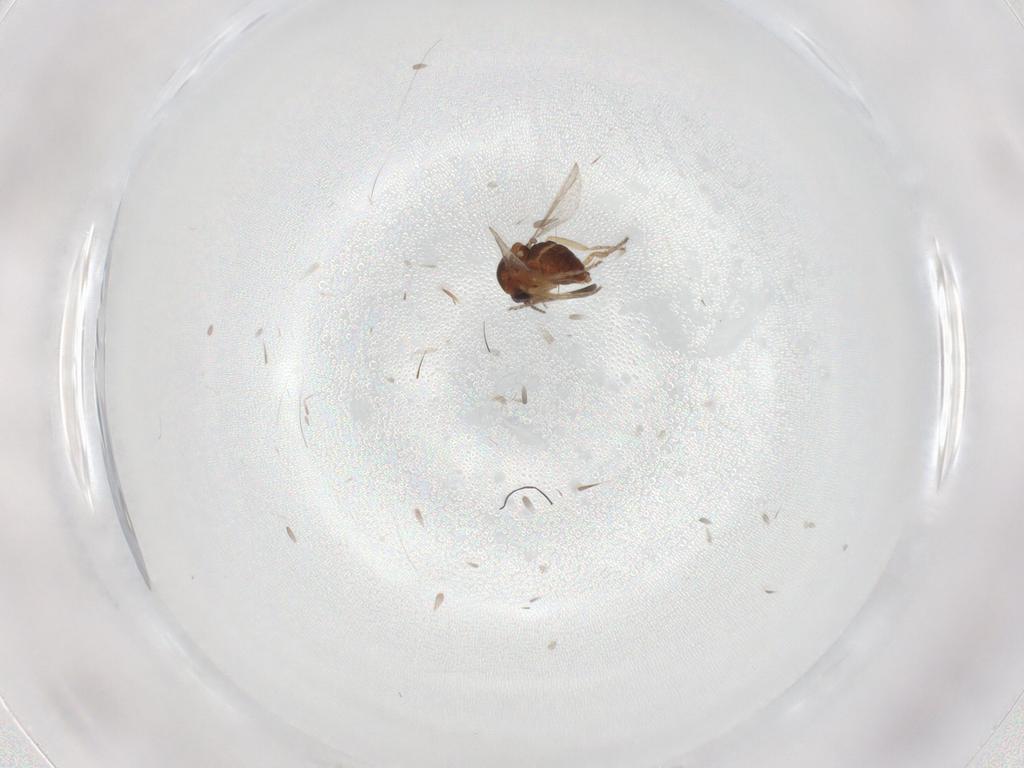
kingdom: Animalia
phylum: Arthropoda
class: Insecta
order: Diptera
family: Ceratopogonidae
